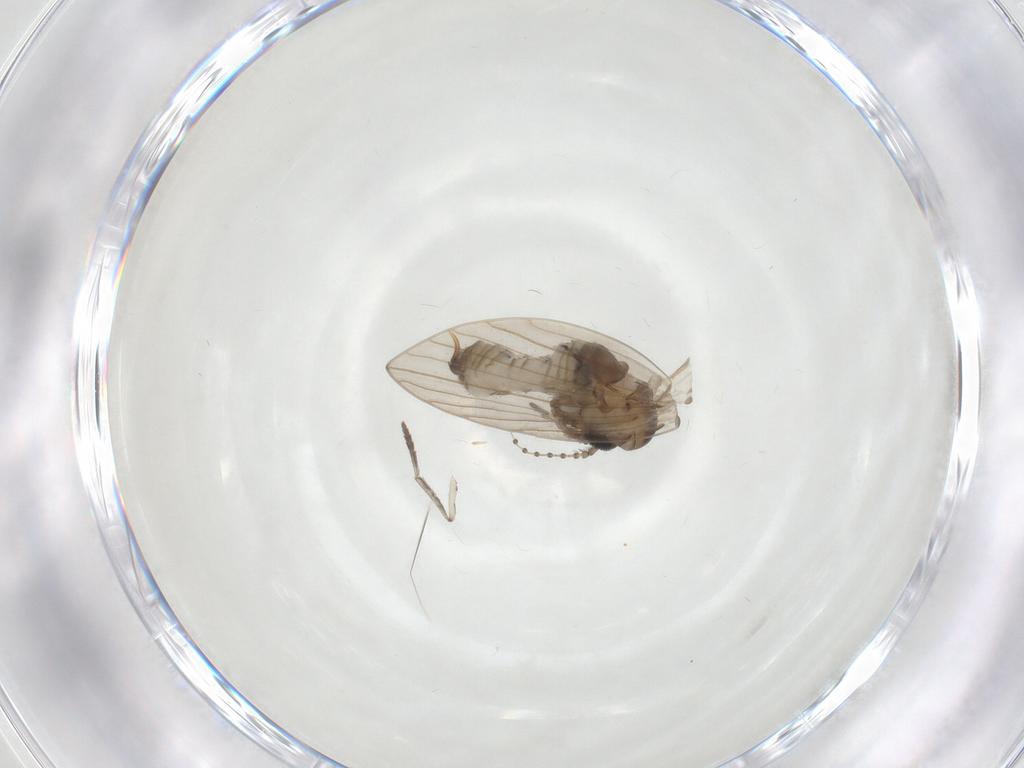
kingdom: Animalia
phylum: Arthropoda
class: Insecta
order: Diptera
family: Psychodidae
